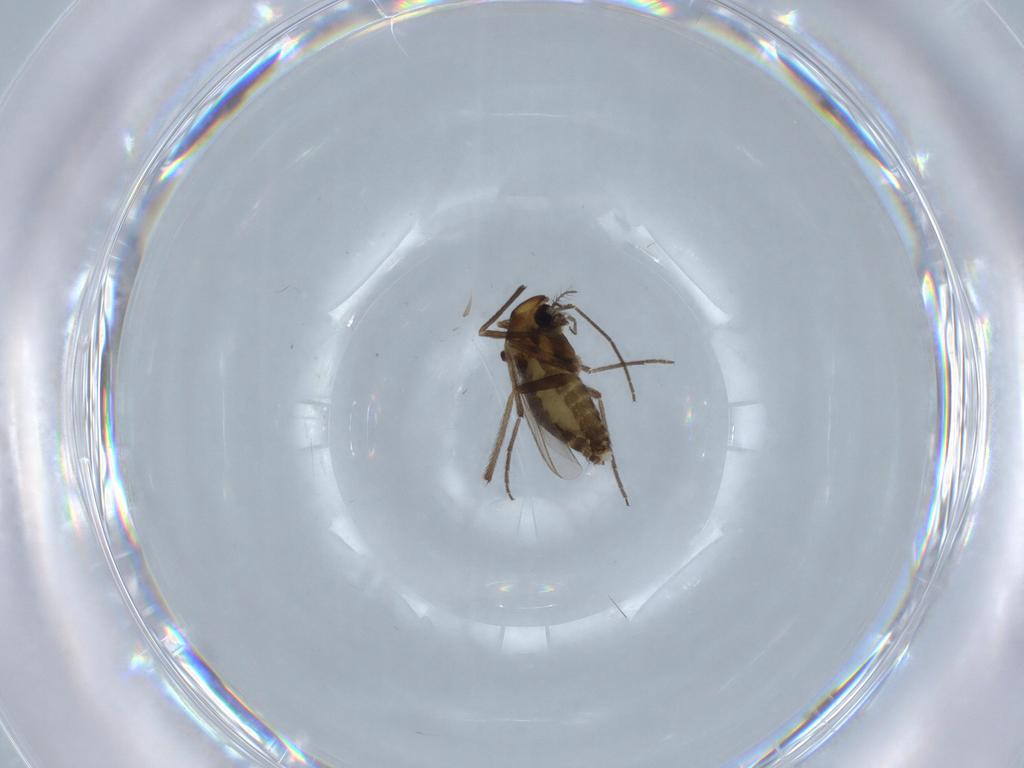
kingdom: Animalia
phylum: Arthropoda
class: Insecta
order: Diptera
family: Chironomidae
